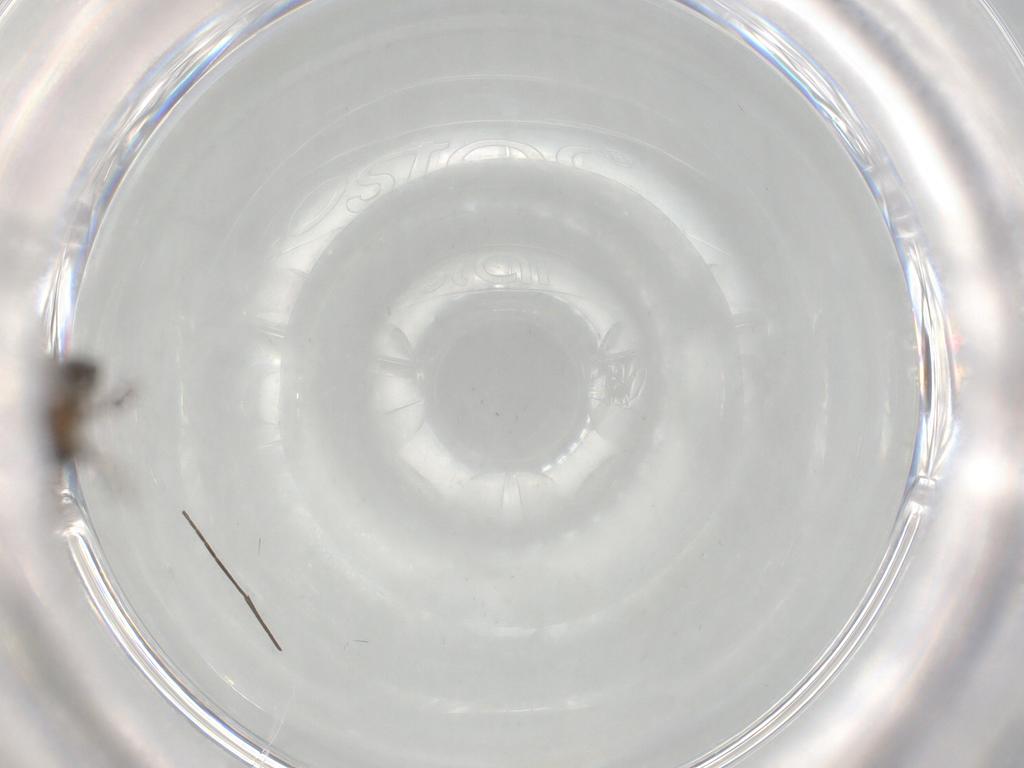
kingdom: Animalia
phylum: Arthropoda
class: Insecta
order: Diptera
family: Sciaridae
